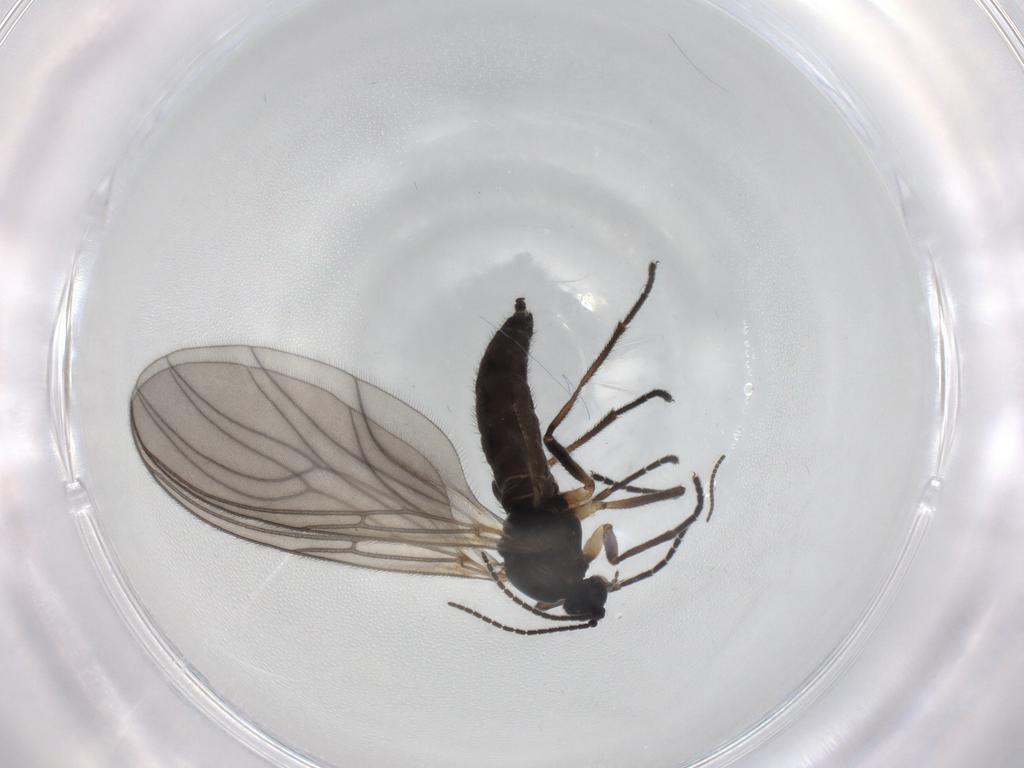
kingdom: Animalia
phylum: Arthropoda
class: Insecta
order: Diptera
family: Sciaridae
